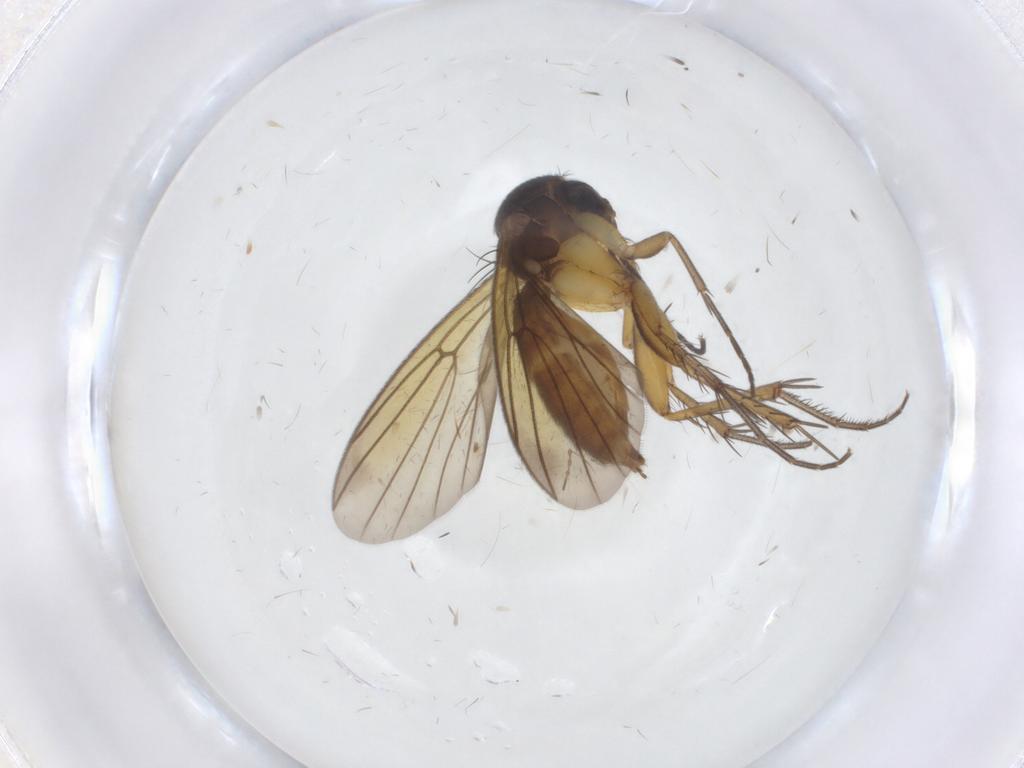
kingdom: Animalia
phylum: Arthropoda
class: Insecta
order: Diptera
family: Mycetophilidae
